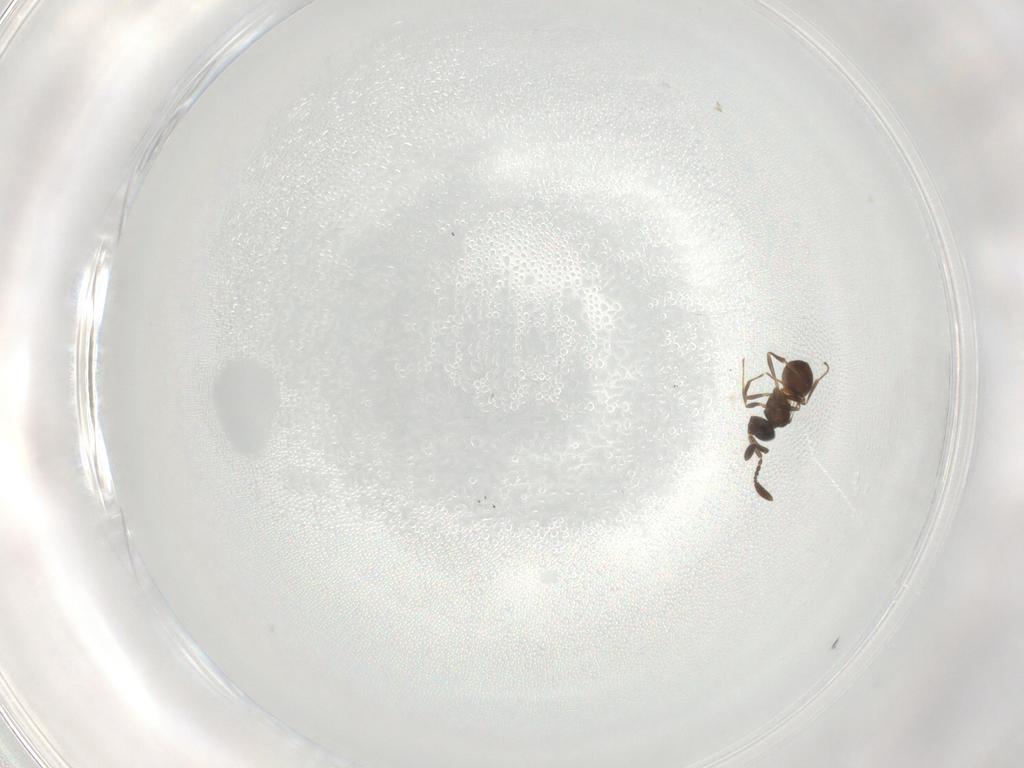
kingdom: Animalia
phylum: Arthropoda
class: Insecta
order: Hymenoptera
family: Scelionidae
